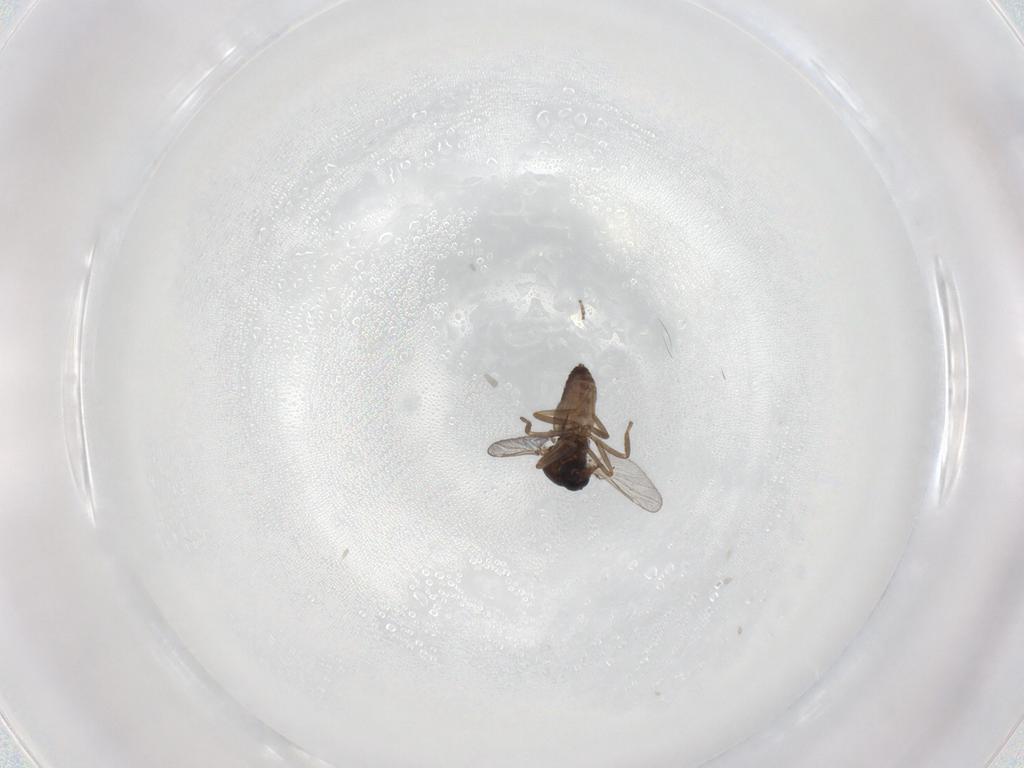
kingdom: Animalia
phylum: Arthropoda
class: Insecta
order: Diptera
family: Ceratopogonidae
